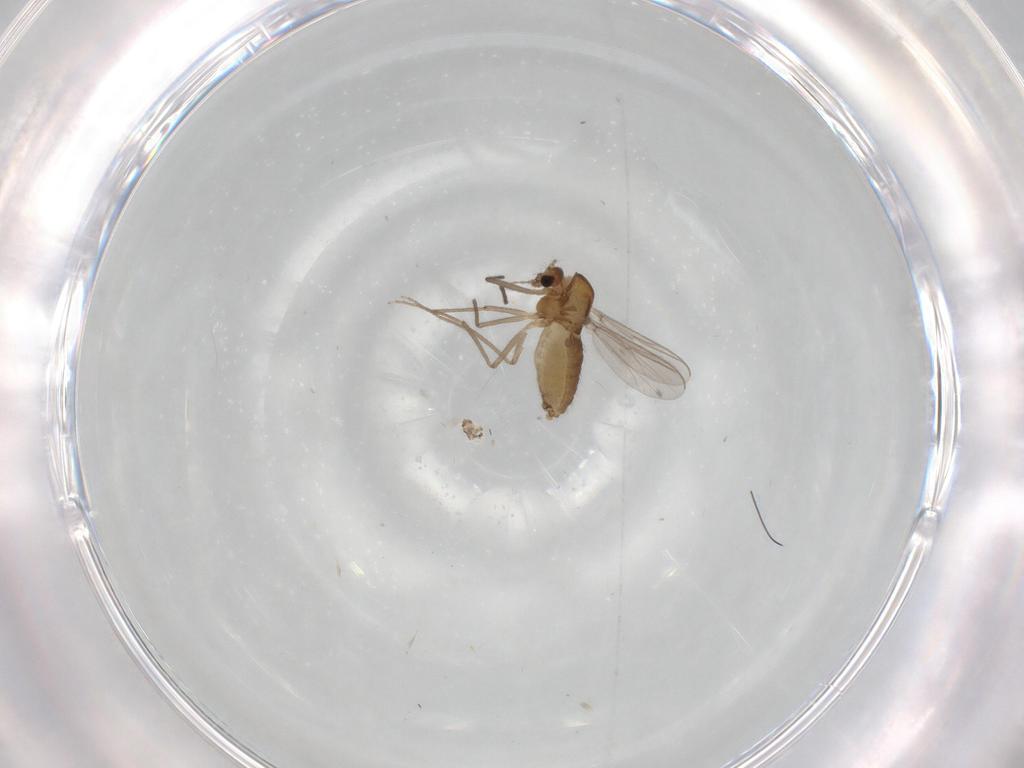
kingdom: Animalia
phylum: Arthropoda
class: Insecta
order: Diptera
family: Chironomidae
